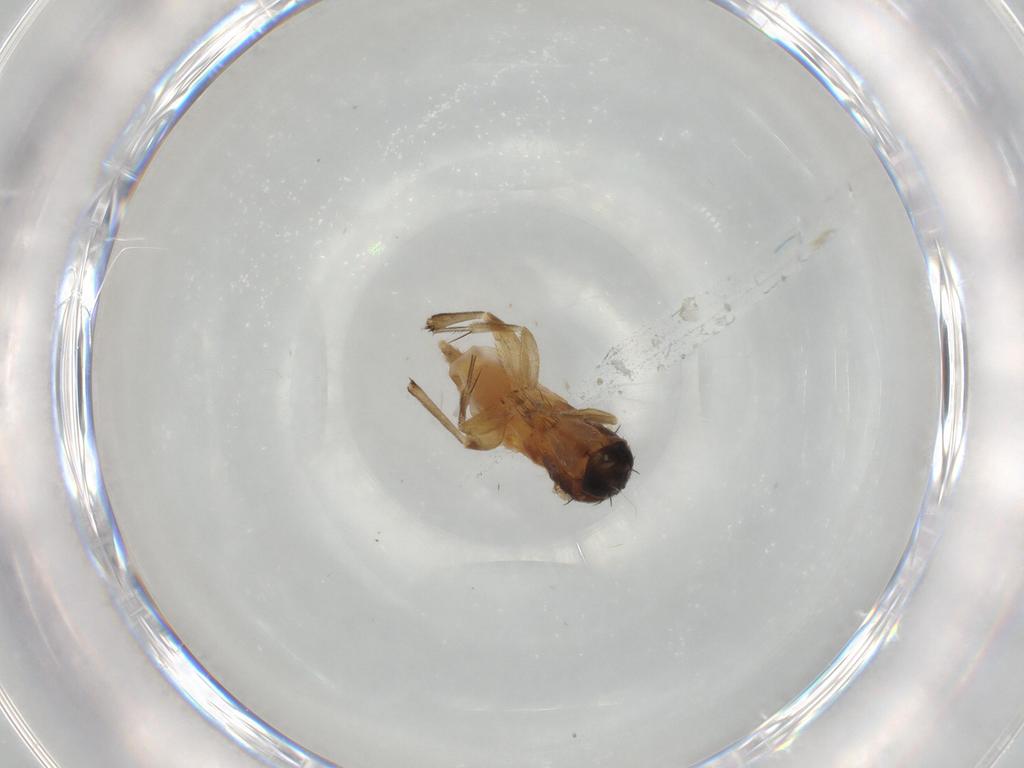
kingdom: Animalia
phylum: Arthropoda
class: Insecta
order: Diptera
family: Phoridae
